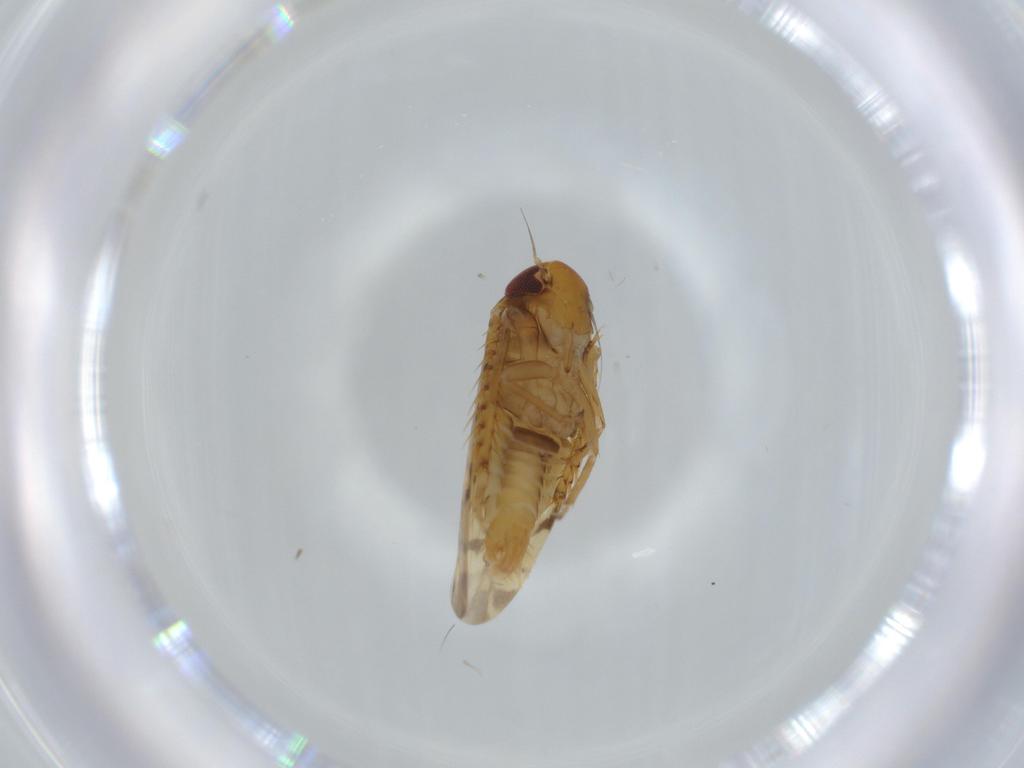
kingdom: Animalia
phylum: Arthropoda
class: Insecta
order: Hemiptera
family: Cicadellidae
